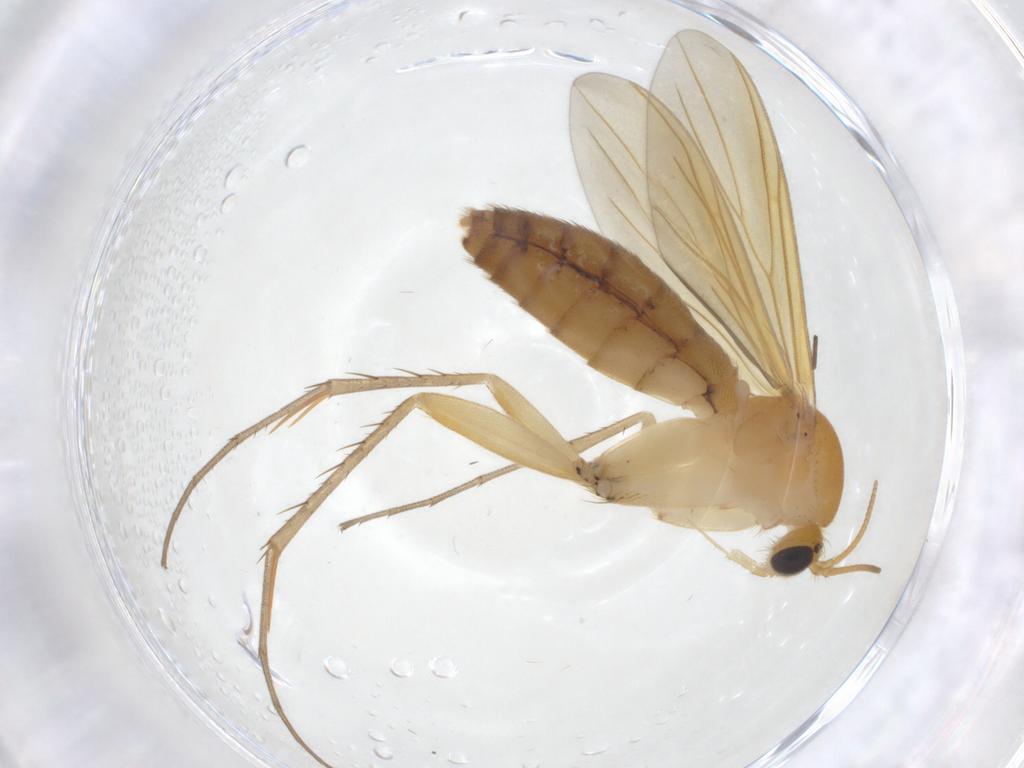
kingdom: Animalia
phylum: Arthropoda
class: Insecta
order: Diptera
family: Mycetophilidae
